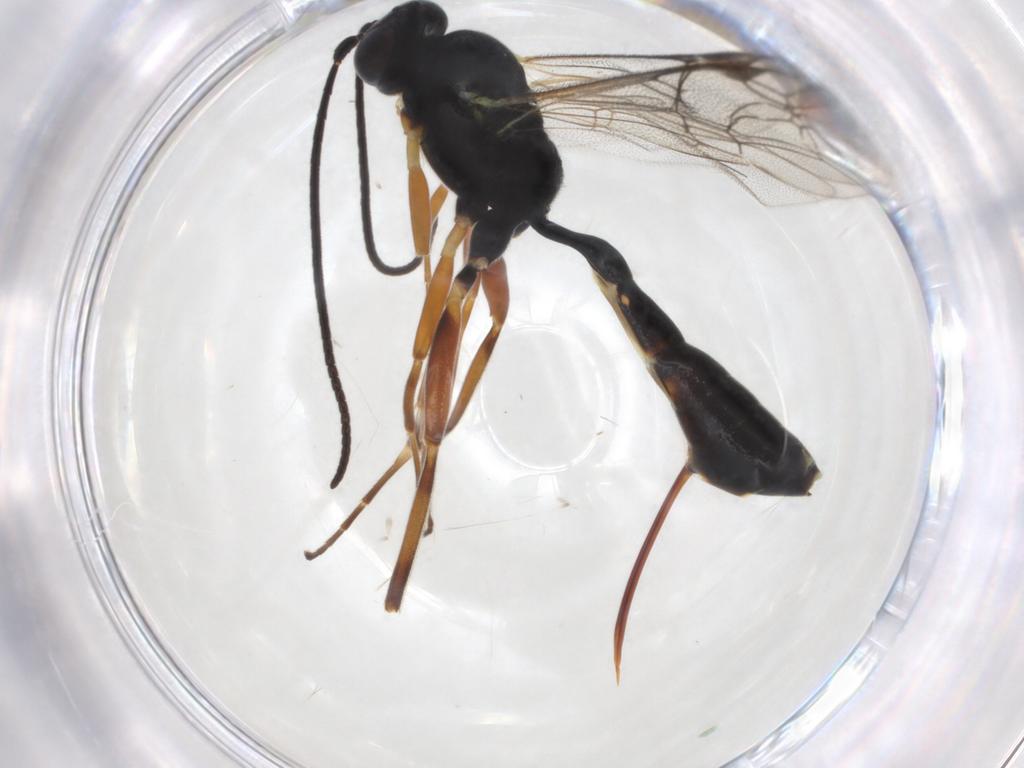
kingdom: Animalia
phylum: Arthropoda
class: Insecta
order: Hymenoptera
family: Ichneumonidae
